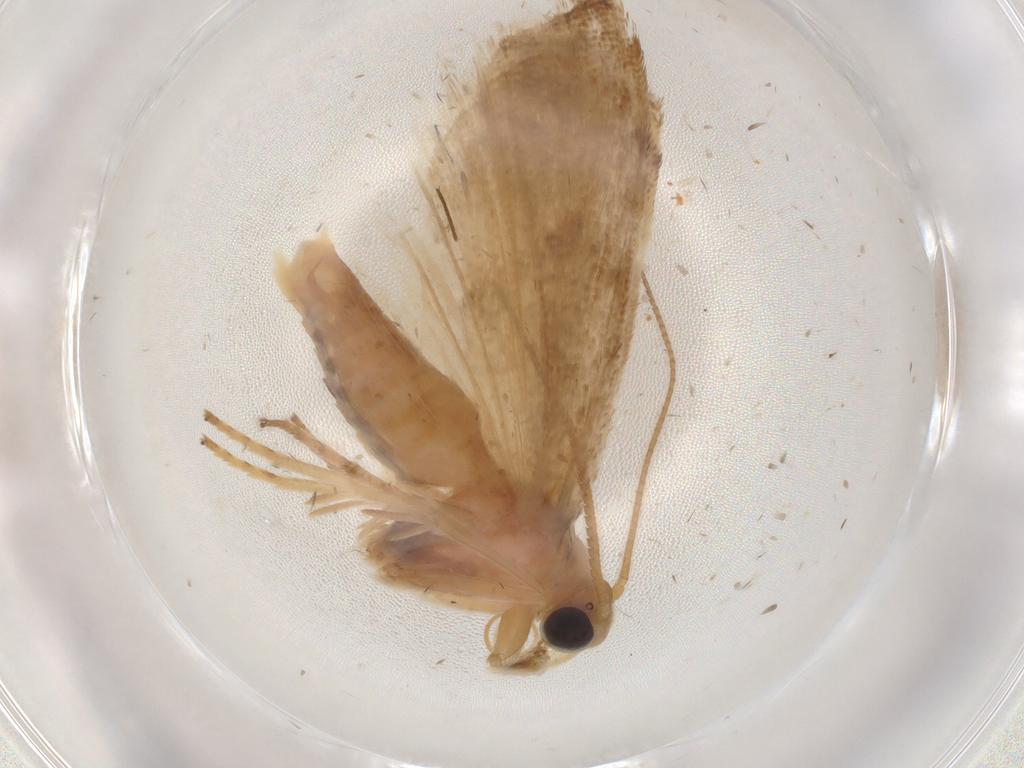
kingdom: Animalia
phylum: Arthropoda
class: Insecta
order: Lepidoptera
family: Pyralidae
